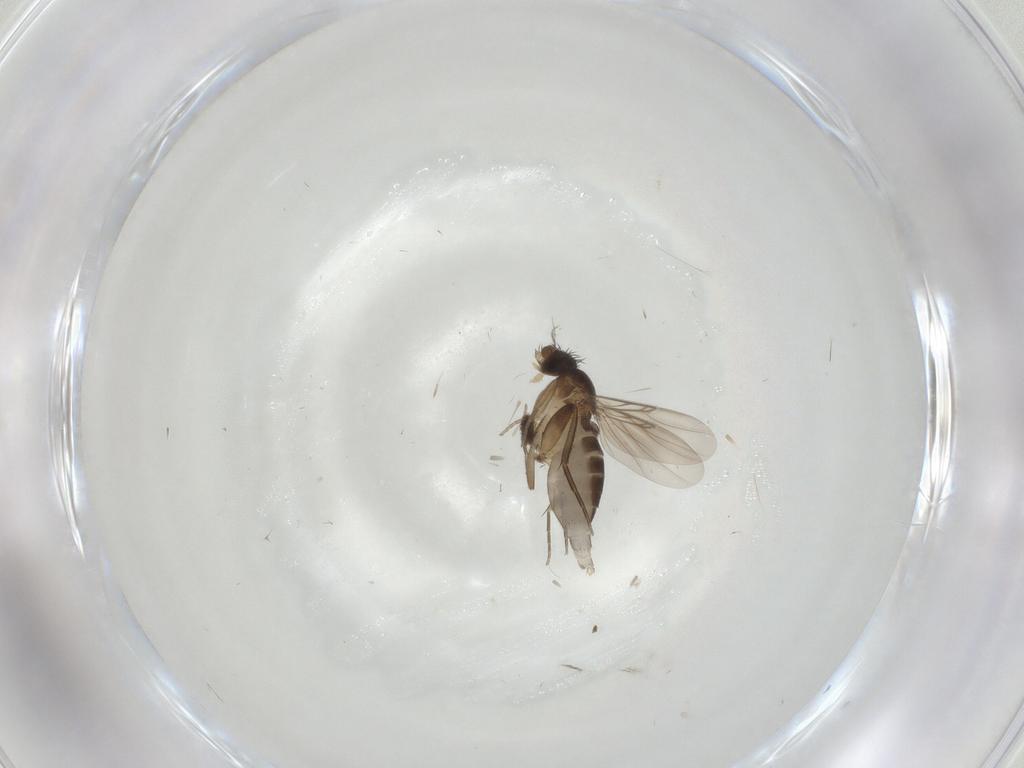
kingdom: Animalia
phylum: Arthropoda
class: Insecta
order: Diptera
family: Phoridae
